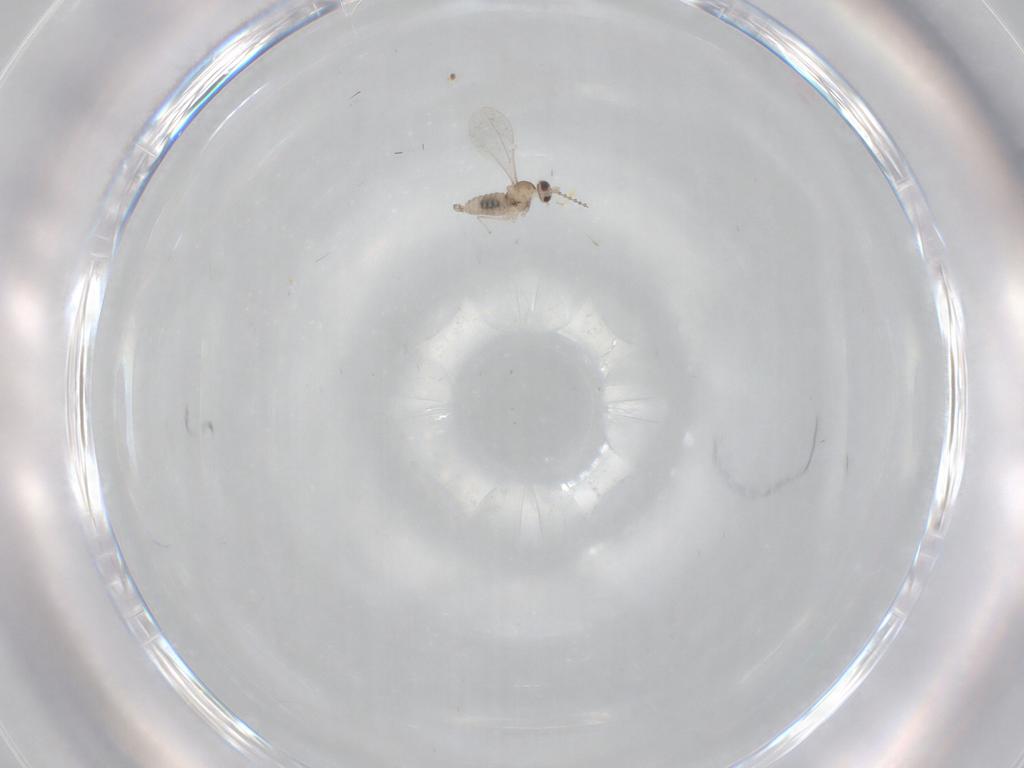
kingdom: Animalia
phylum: Arthropoda
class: Insecta
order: Diptera
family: Cecidomyiidae
